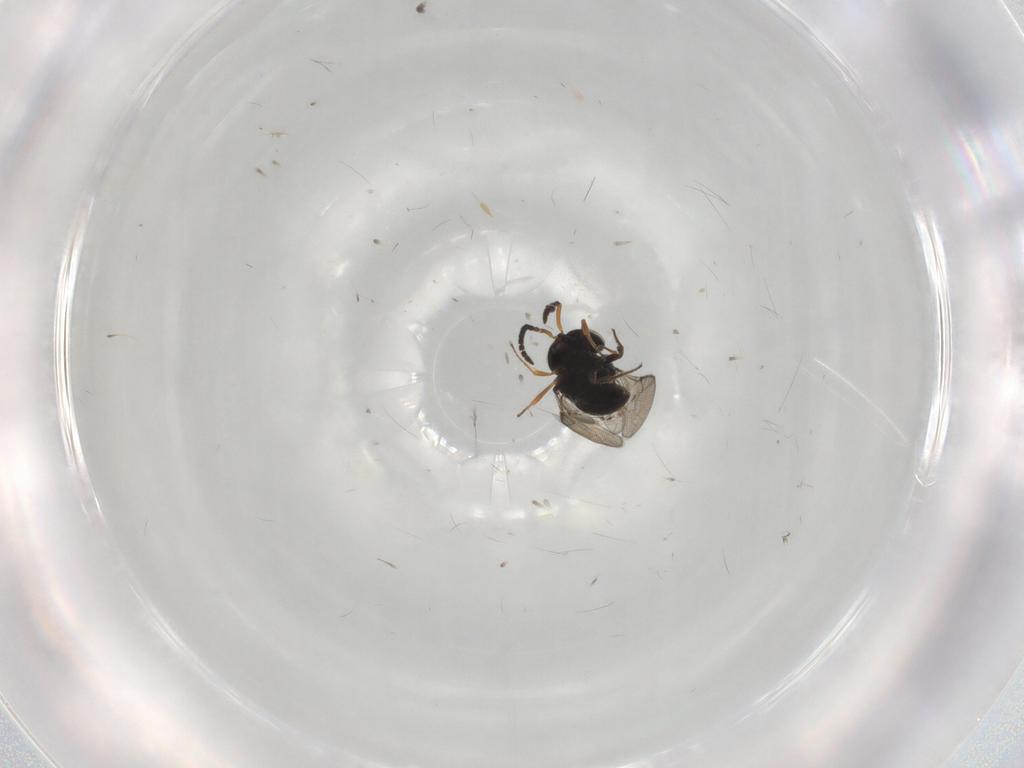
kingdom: Animalia
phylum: Arthropoda
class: Insecta
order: Hymenoptera
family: Scelionidae
